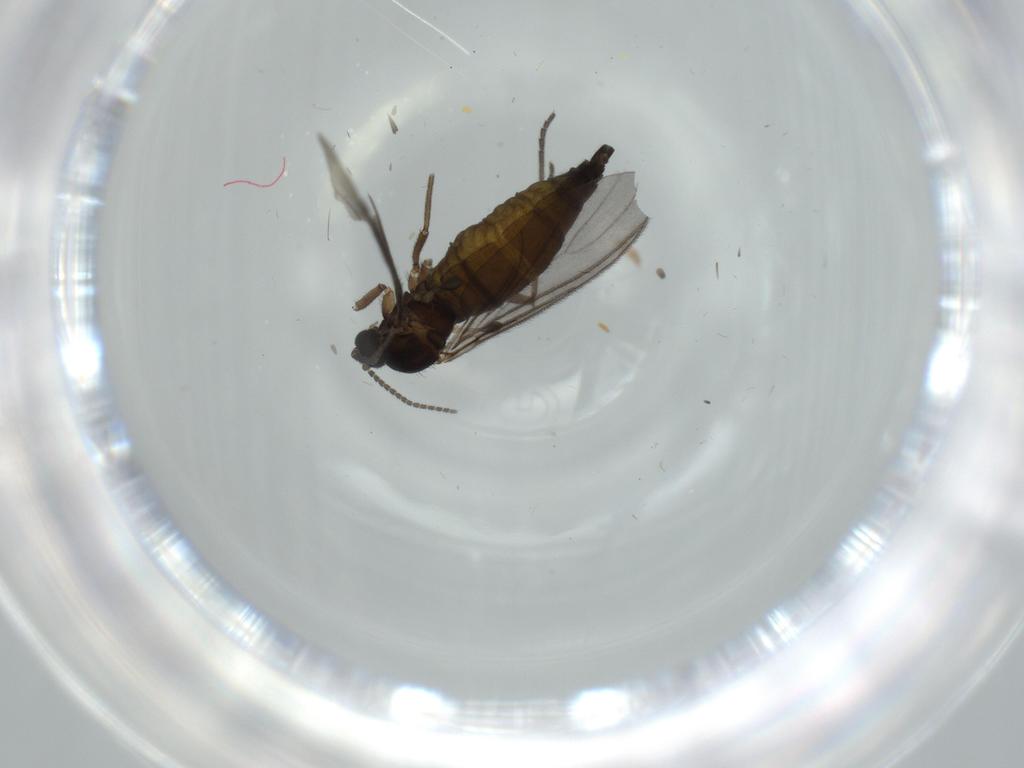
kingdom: Animalia
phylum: Arthropoda
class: Insecta
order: Diptera
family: Sciaridae
